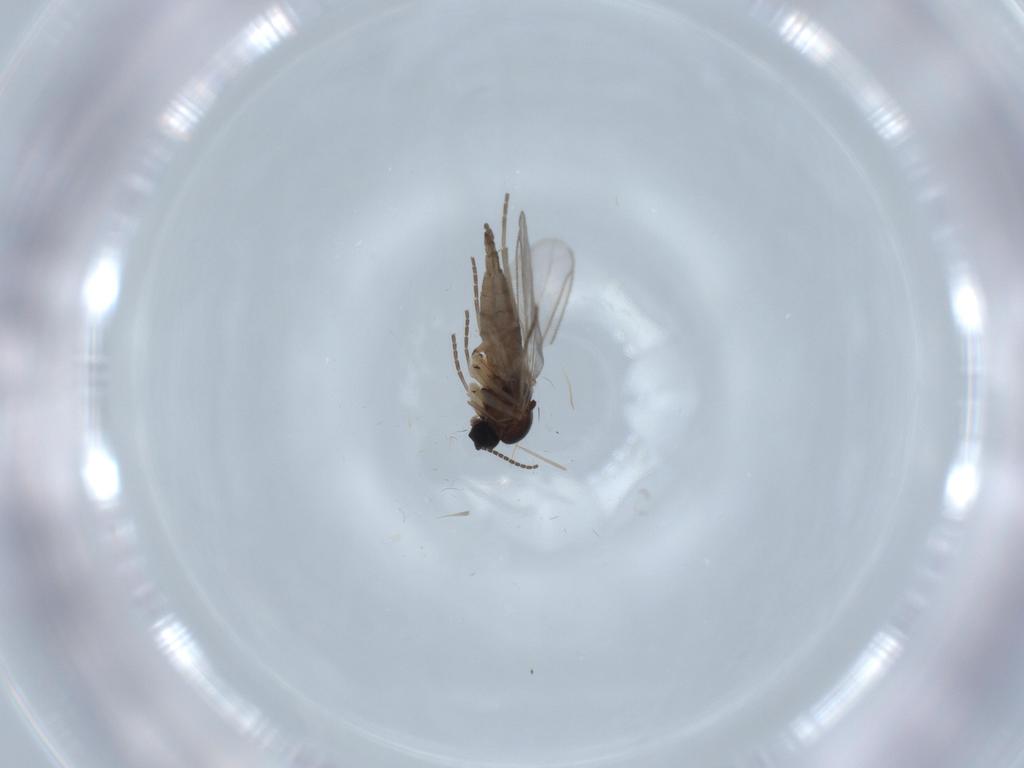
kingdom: Animalia
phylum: Arthropoda
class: Insecta
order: Diptera
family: Sciaridae
